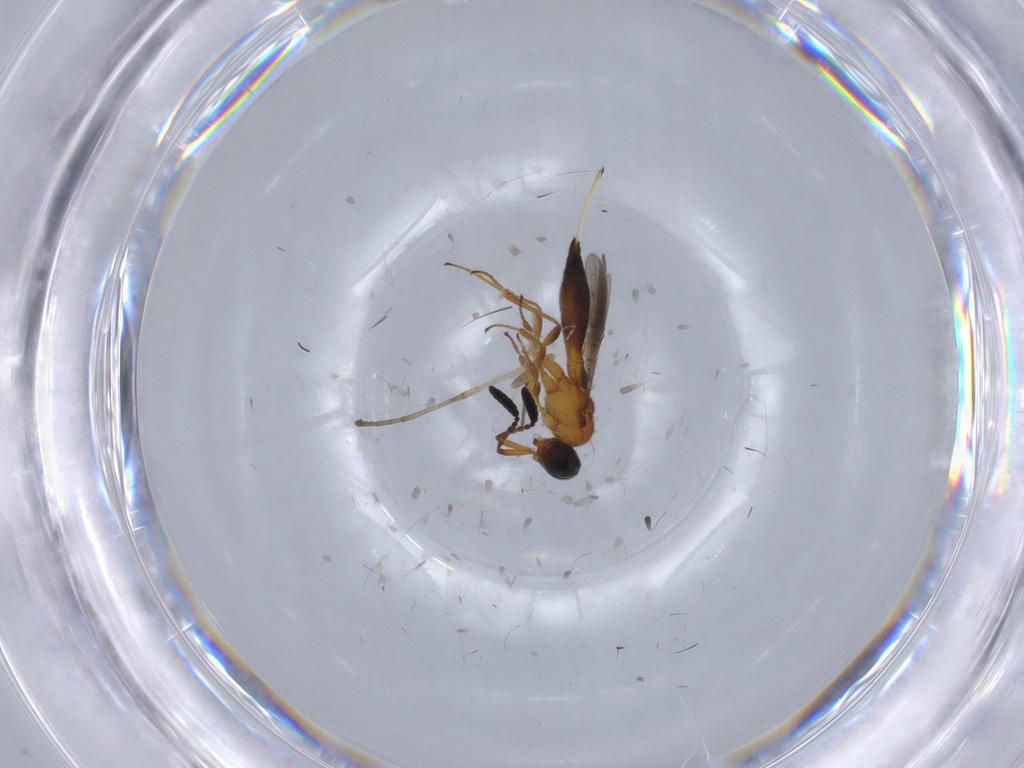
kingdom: Animalia
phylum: Arthropoda
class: Insecta
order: Hymenoptera
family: Scelionidae
